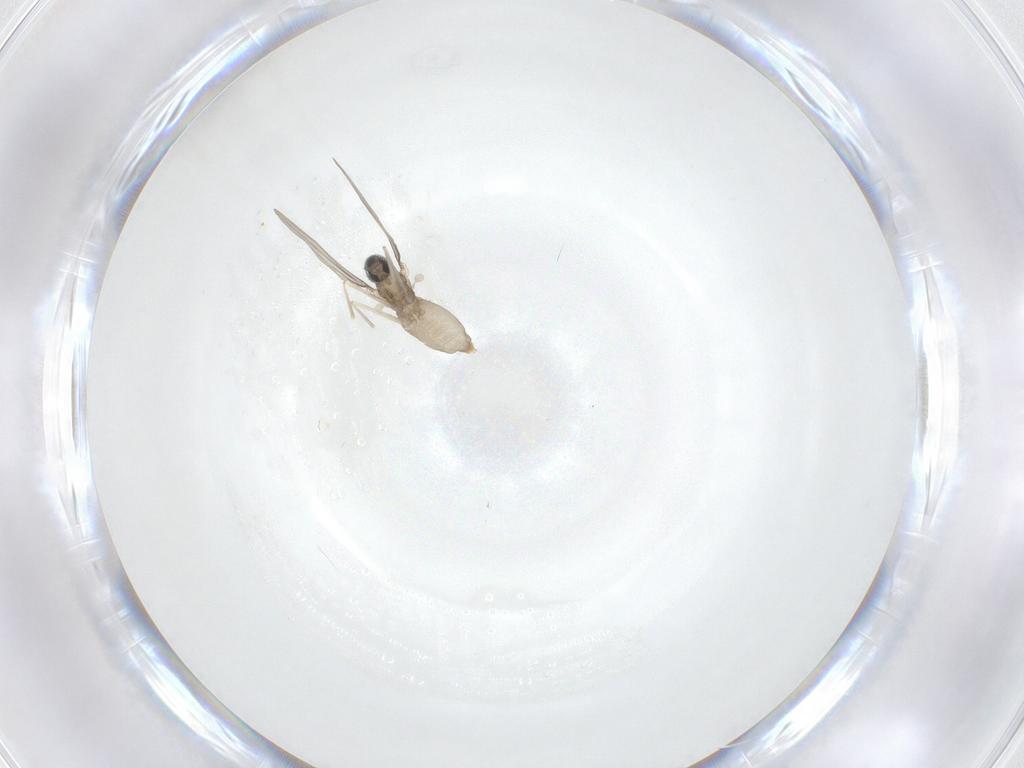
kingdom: Animalia
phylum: Arthropoda
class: Insecta
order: Diptera
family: Cecidomyiidae
